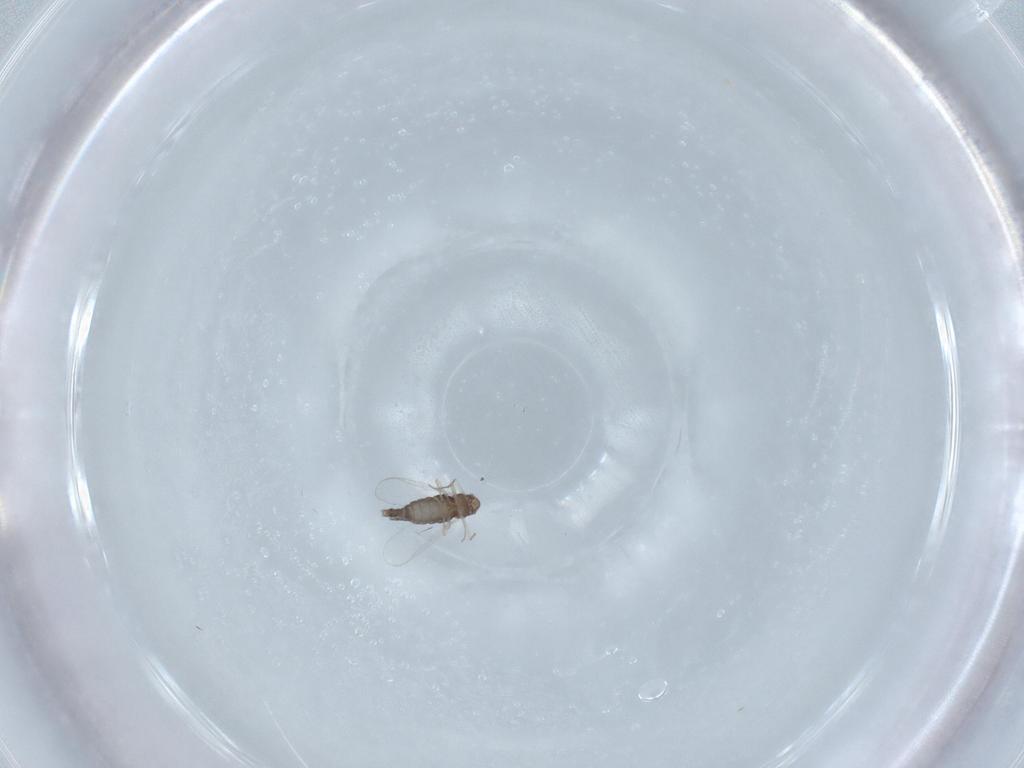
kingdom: Animalia
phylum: Arthropoda
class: Insecta
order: Diptera
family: Chironomidae
